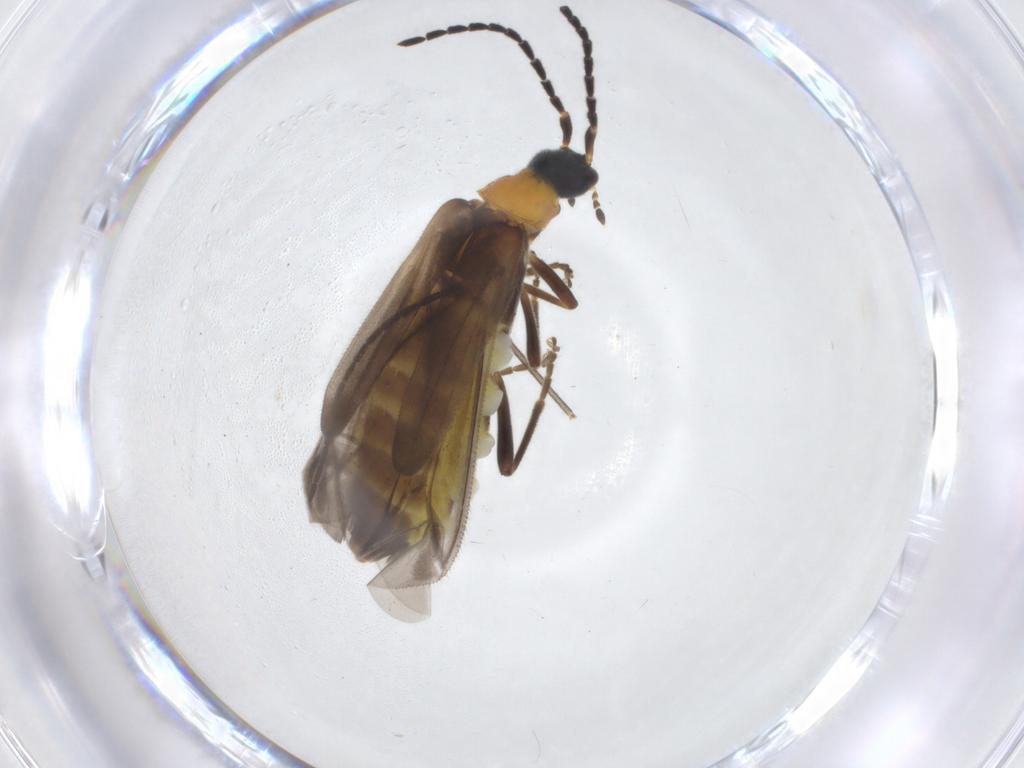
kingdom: Animalia
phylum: Arthropoda
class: Insecta
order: Coleoptera
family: Cantharidae
